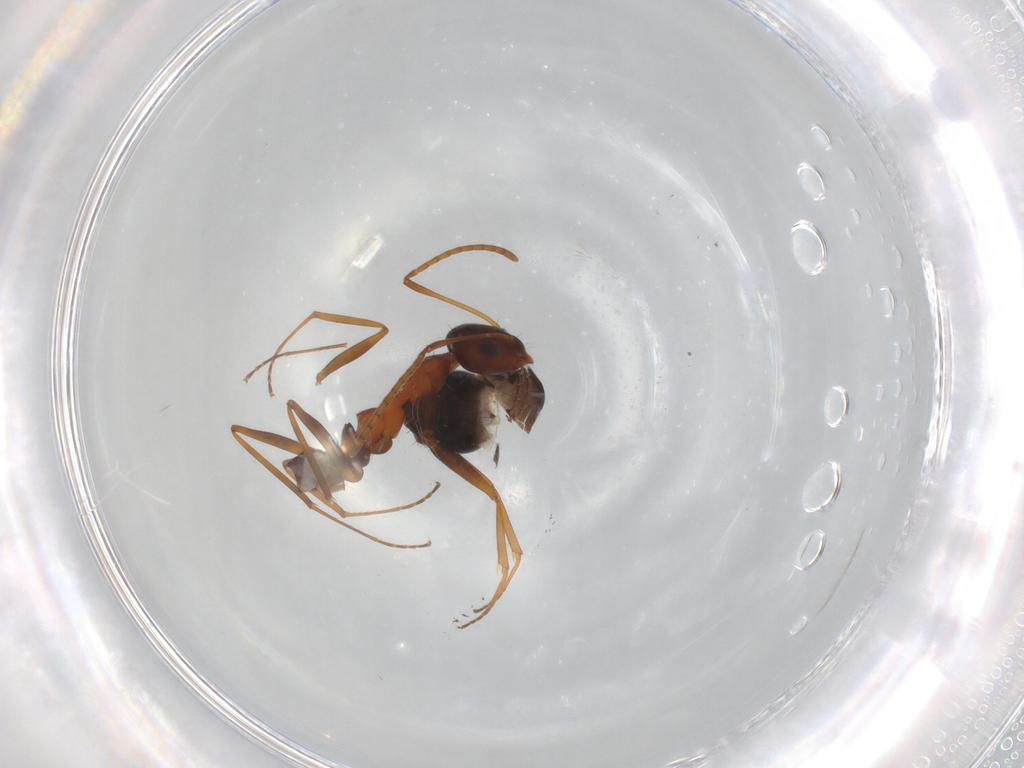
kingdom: Animalia
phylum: Arthropoda
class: Insecta
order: Hymenoptera
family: Formicidae
